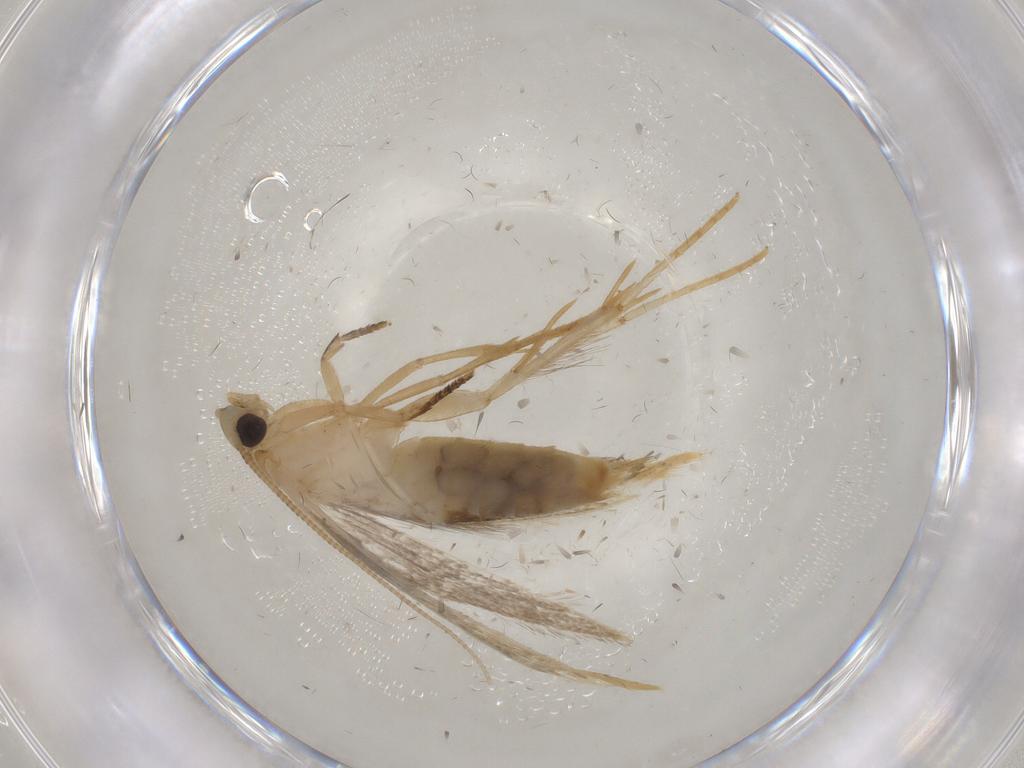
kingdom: Animalia
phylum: Arthropoda
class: Insecta
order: Lepidoptera
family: Tineidae
